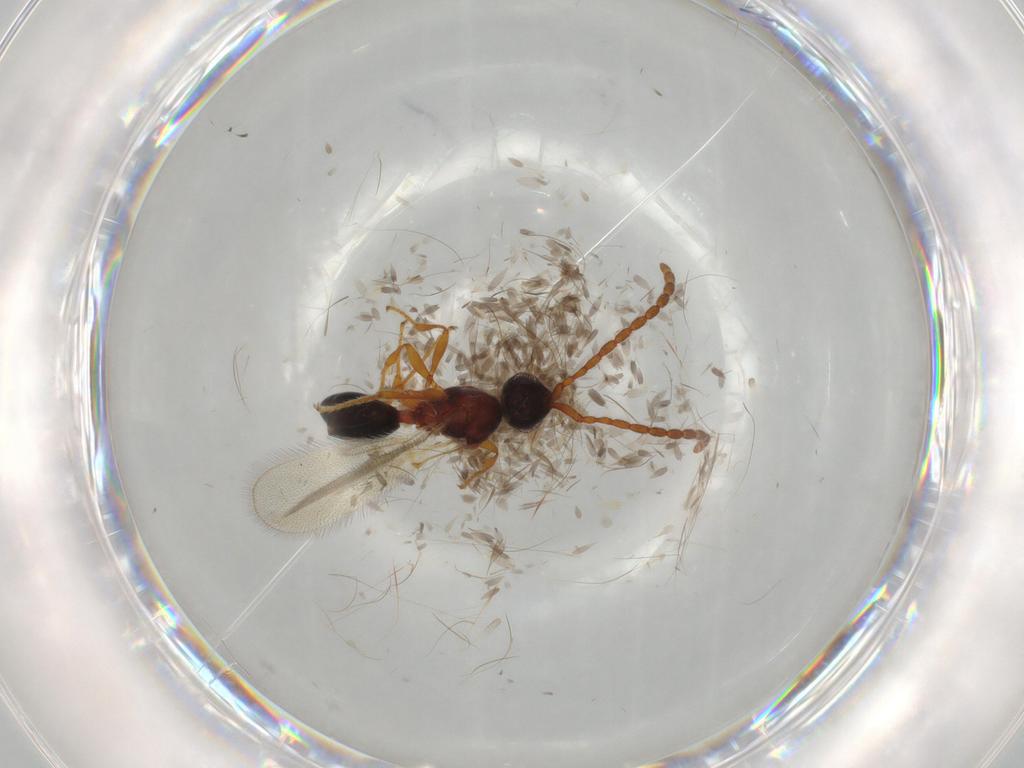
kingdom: Animalia
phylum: Arthropoda
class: Insecta
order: Hymenoptera
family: Diapriidae
